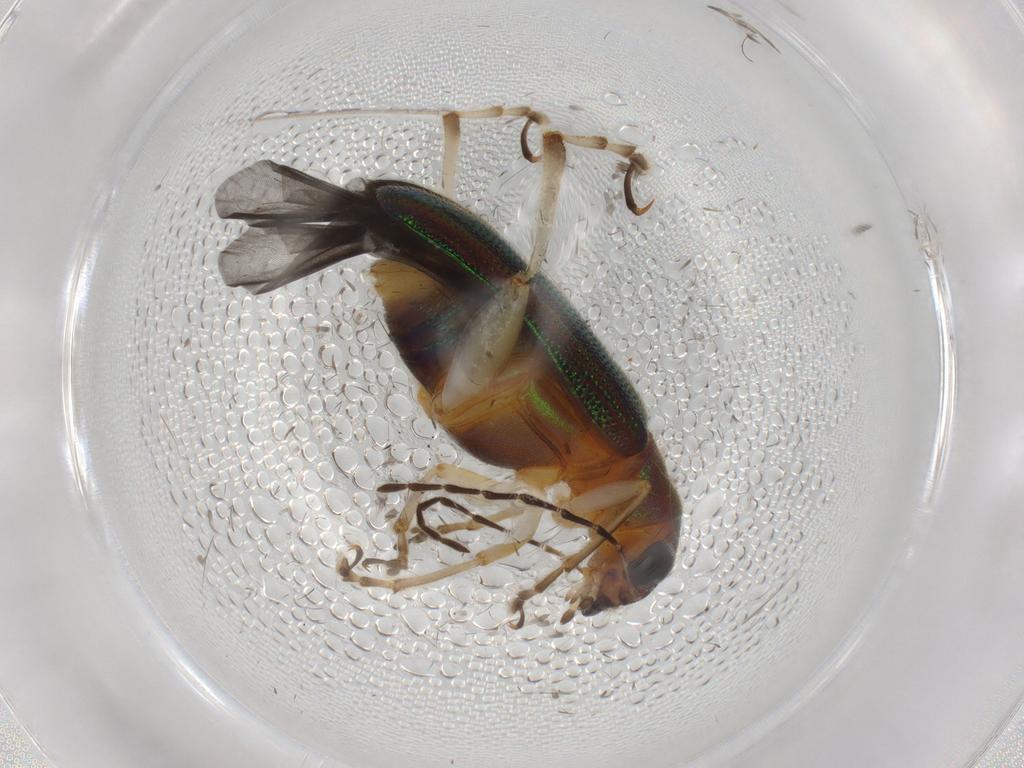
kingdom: Animalia
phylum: Arthropoda
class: Insecta
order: Coleoptera
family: Chrysomelidae
